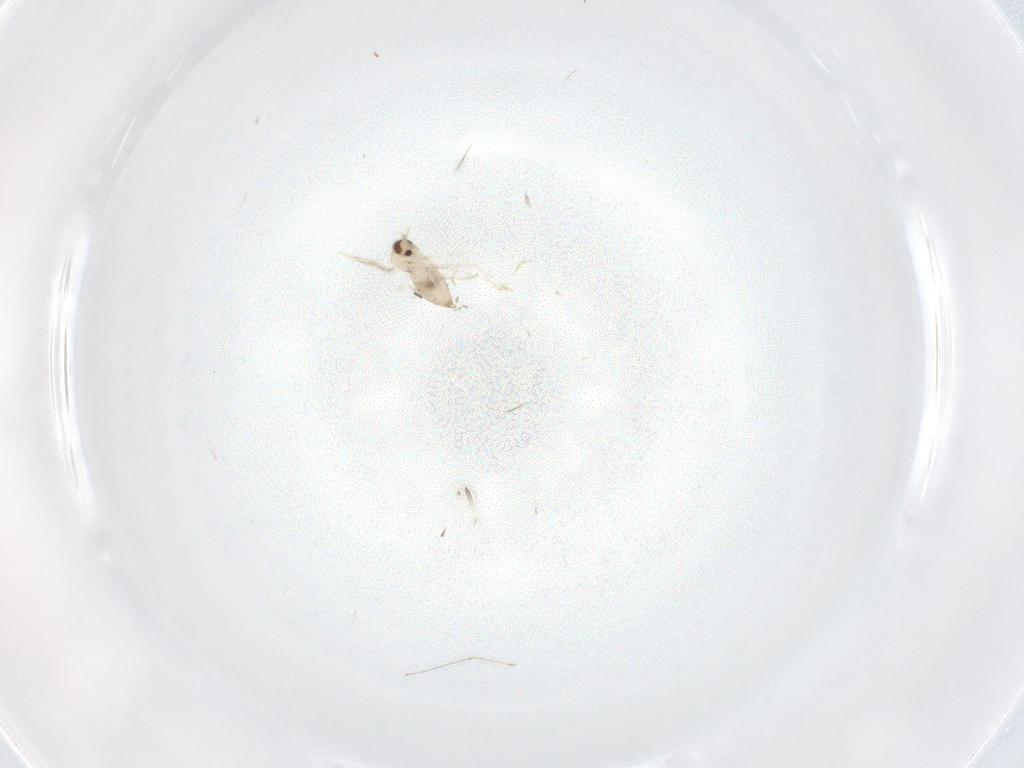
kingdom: Animalia
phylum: Arthropoda
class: Insecta
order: Diptera
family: Cecidomyiidae
